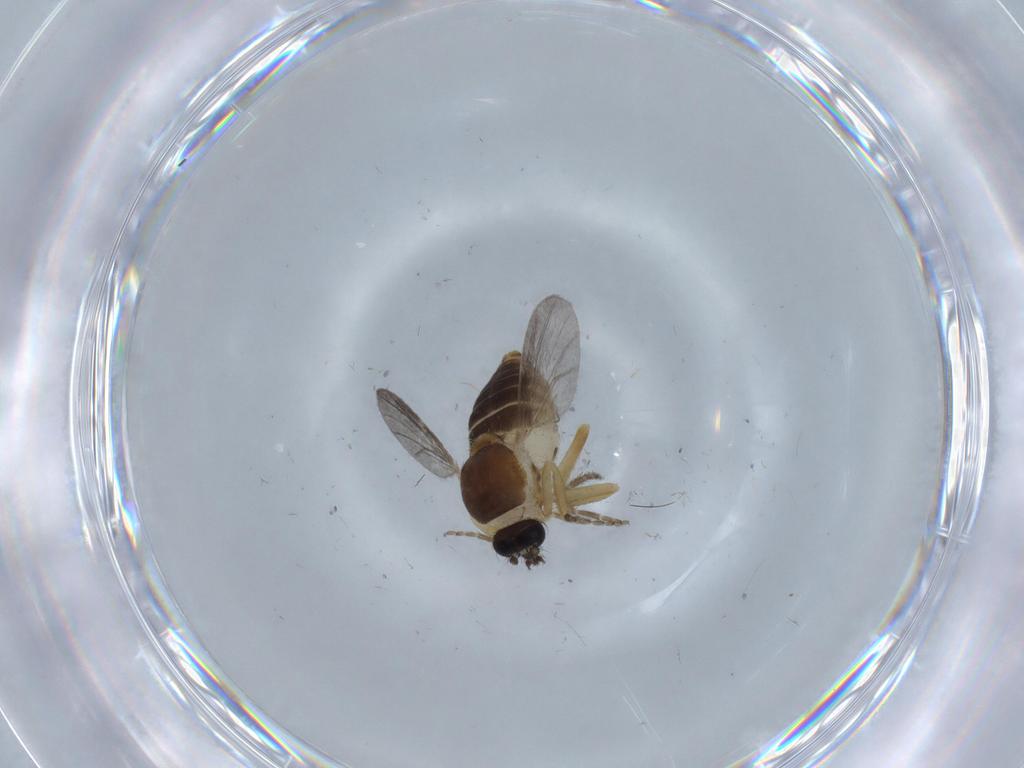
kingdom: Animalia
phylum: Arthropoda
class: Insecta
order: Diptera
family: Ceratopogonidae
